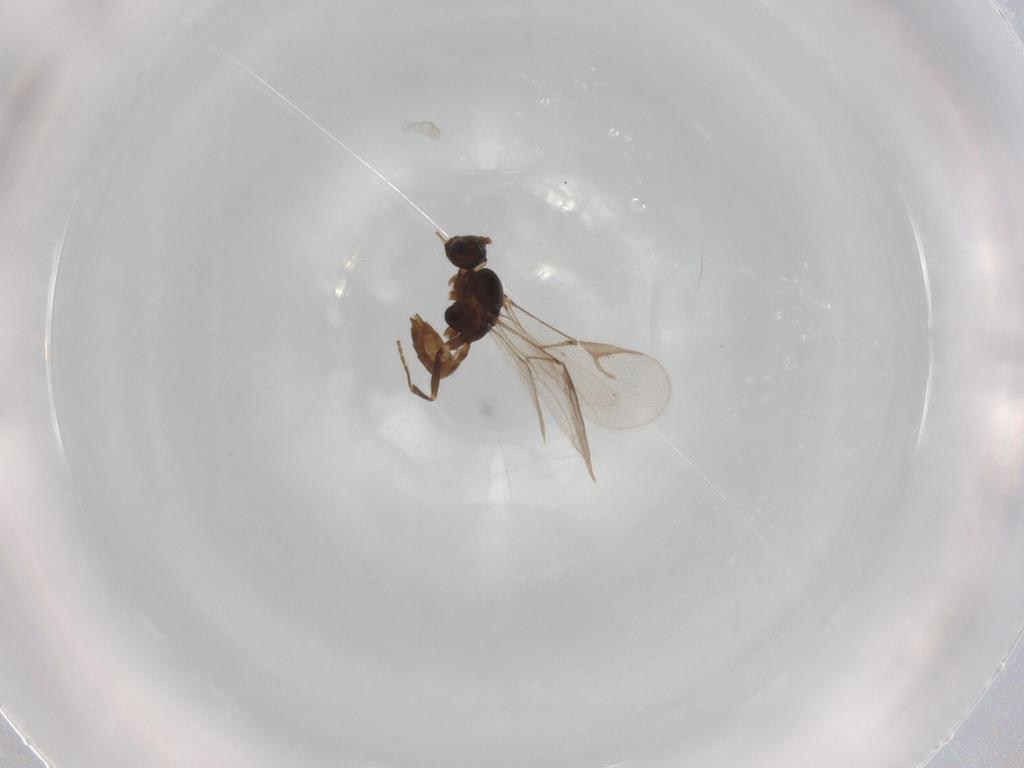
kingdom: Animalia
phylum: Arthropoda
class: Insecta
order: Hymenoptera
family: Braconidae
